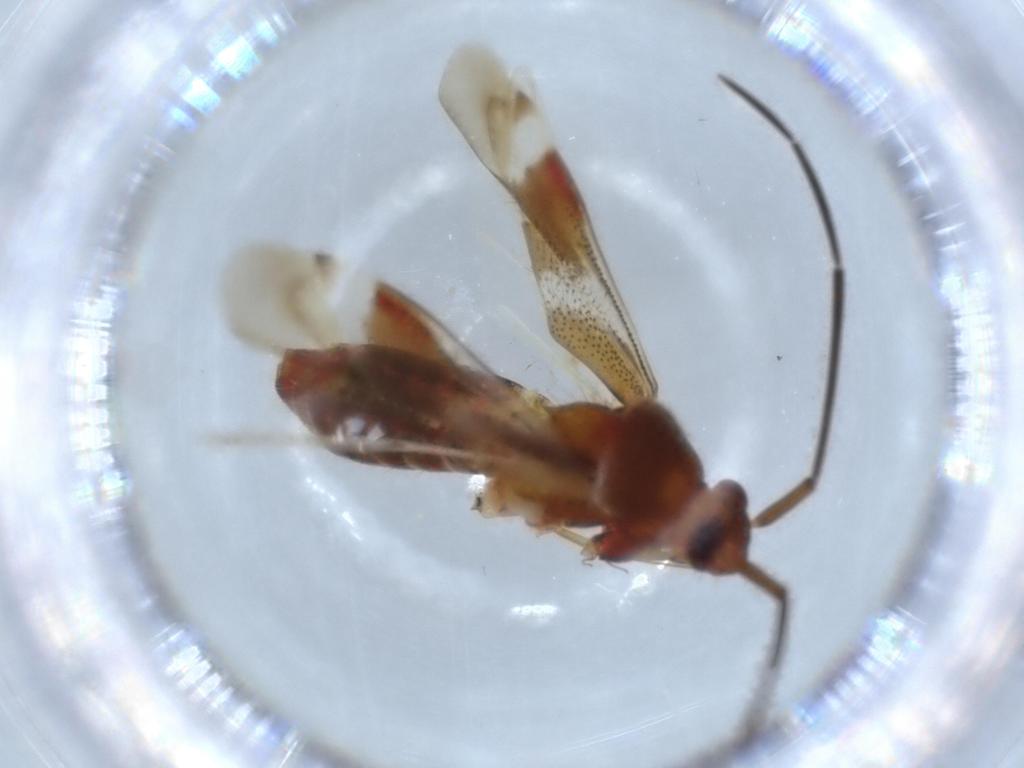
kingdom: Animalia
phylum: Arthropoda
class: Insecta
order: Hemiptera
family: Miridae
